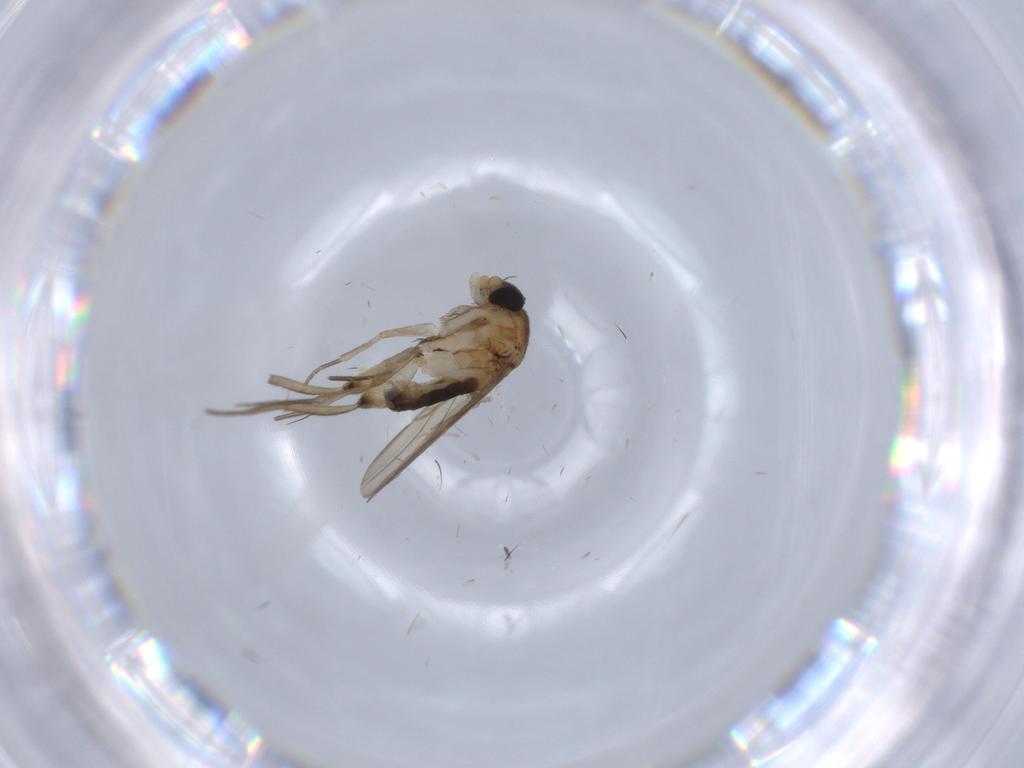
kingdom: Animalia
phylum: Arthropoda
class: Insecta
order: Diptera
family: Phoridae
